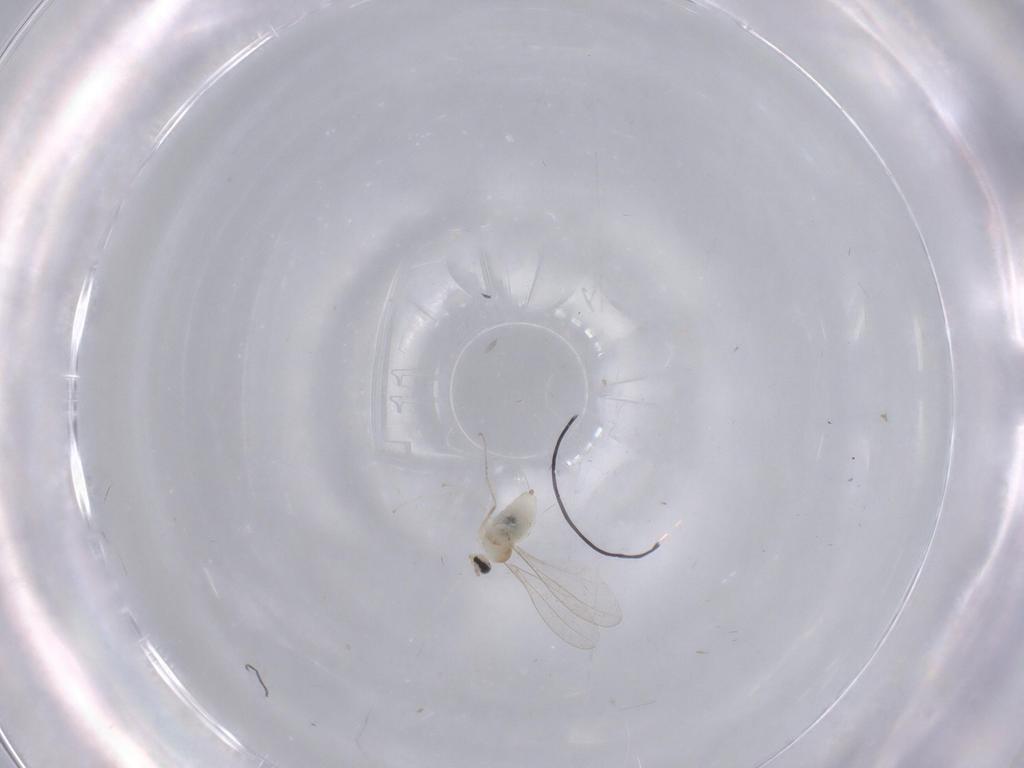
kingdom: Animalia
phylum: Arthropoda
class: Insecta
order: Diptera
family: Cecidomyiidae
